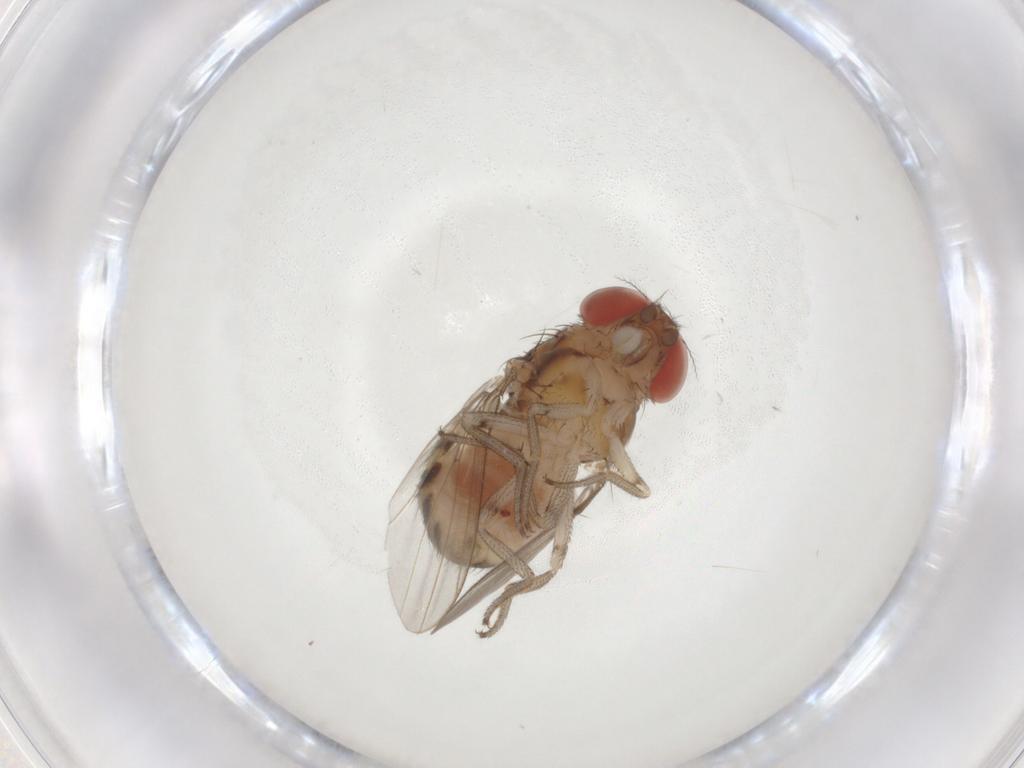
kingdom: Animalia
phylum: Arthropoda
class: Insecta
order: Diptera
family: Drosophilidae
